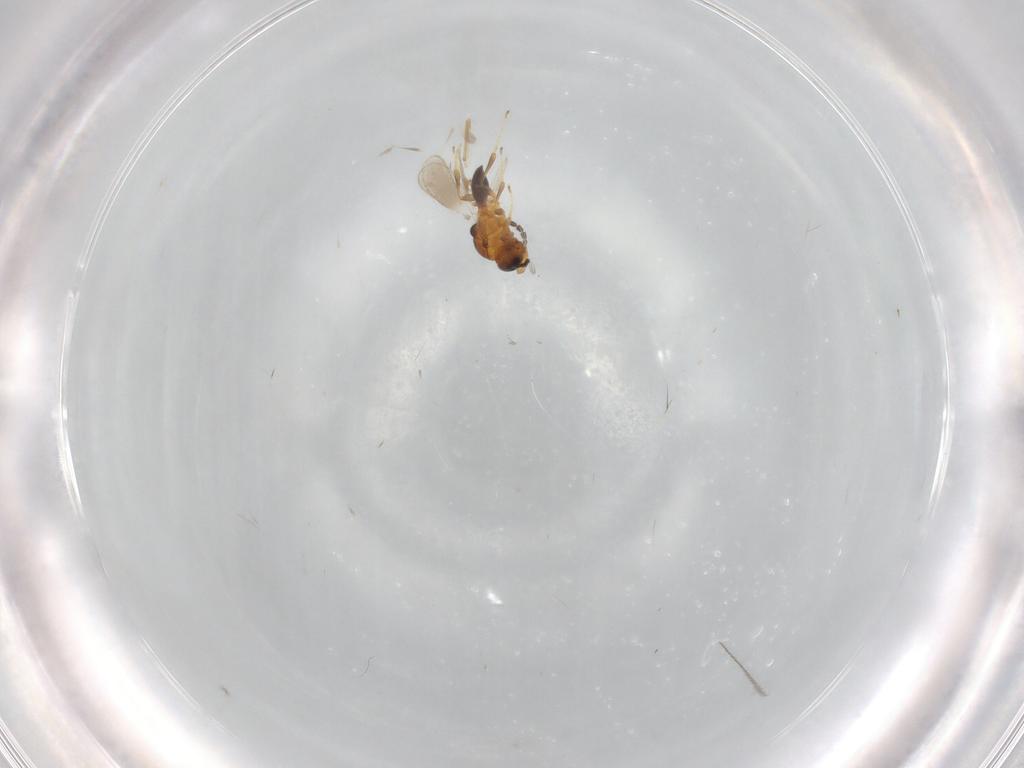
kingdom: Animalia
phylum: Arthropoda
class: Insecta
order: Hymenoptera
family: Platygastridae
